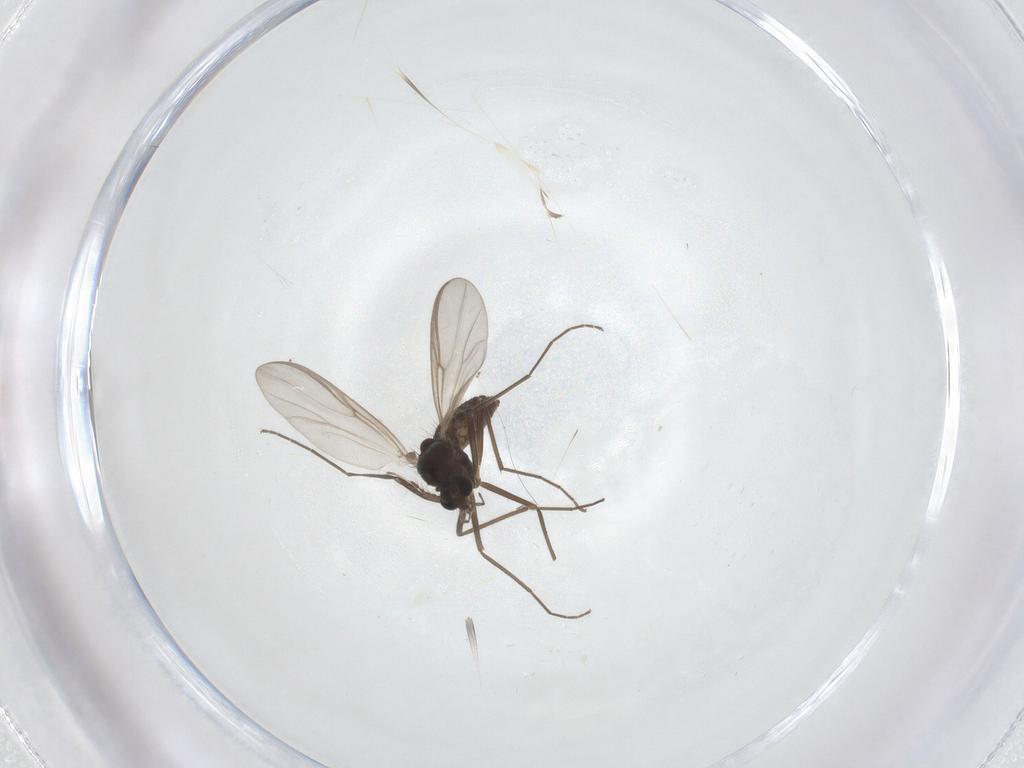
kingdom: Animalia
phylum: Arthropoda
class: Insecta
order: Diptera
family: Chironomidae
